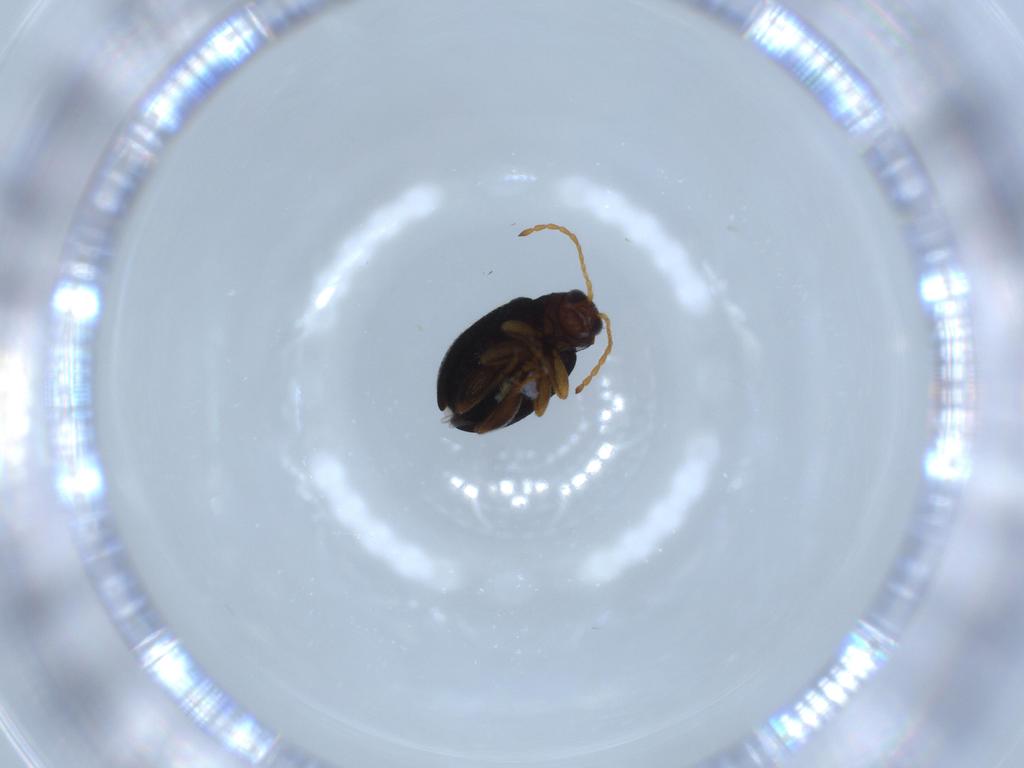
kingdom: Animalia
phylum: Arthropoda
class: Insecta
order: Coleoptera
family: Chrysomelidae
